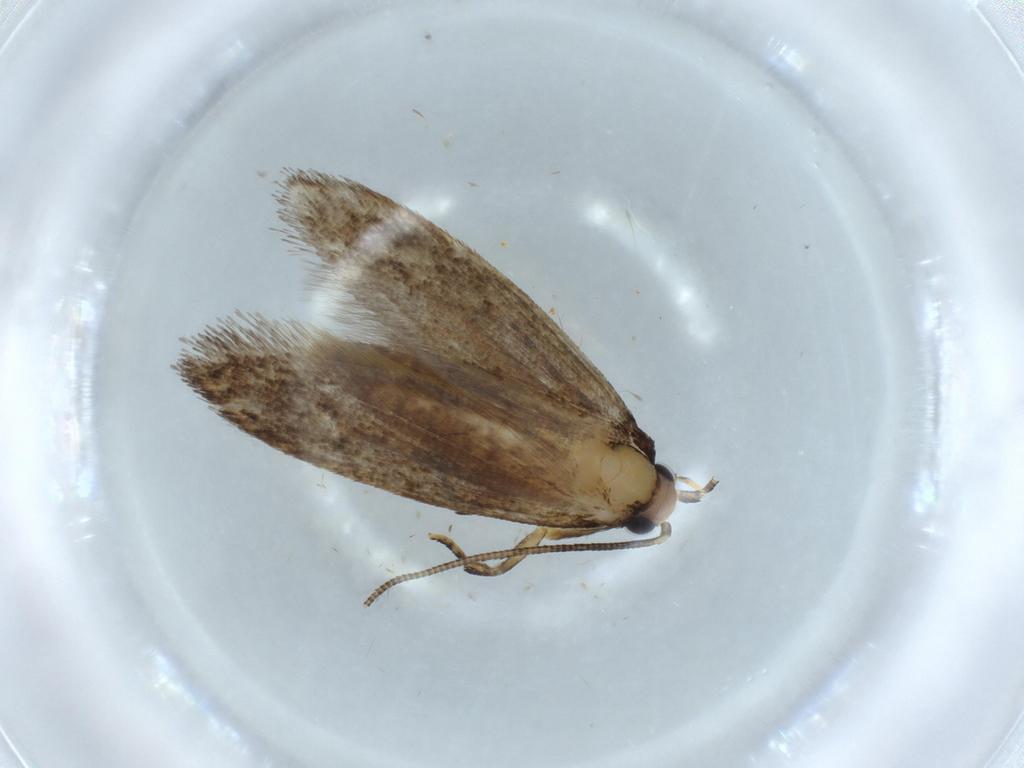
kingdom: Animalia
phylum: Arthropoda
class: Insecta
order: Lepidoptera
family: Tineidae
